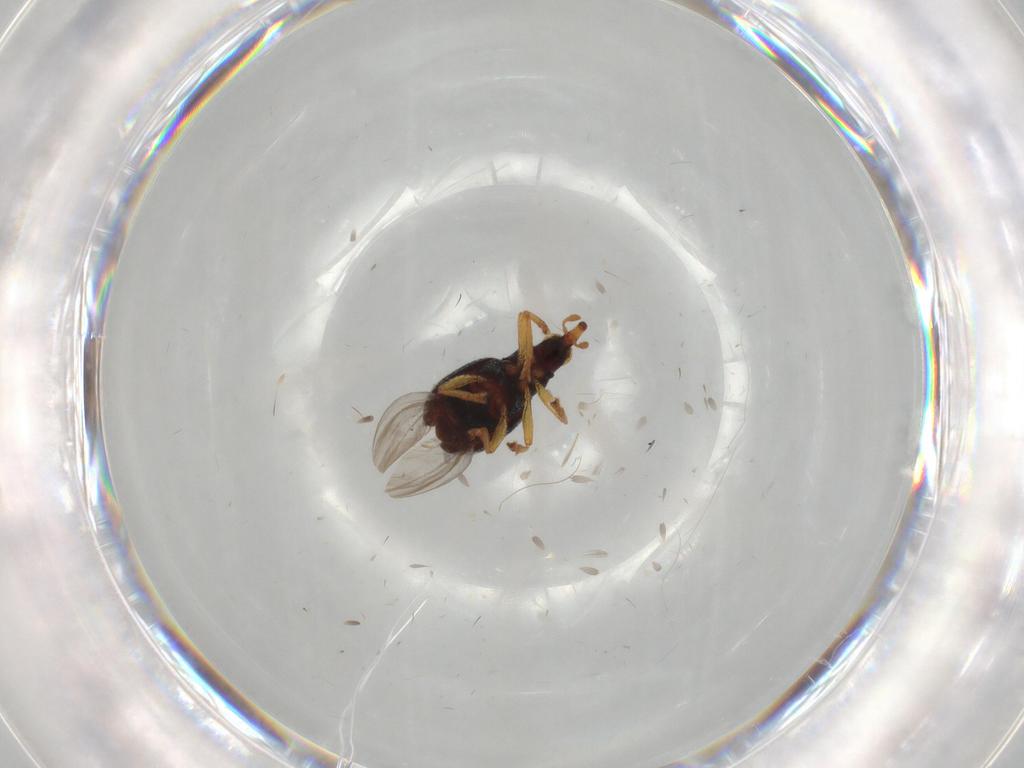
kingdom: Animalia
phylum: Arthropoda
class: Insecta
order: Coleoptera
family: Brentidae
